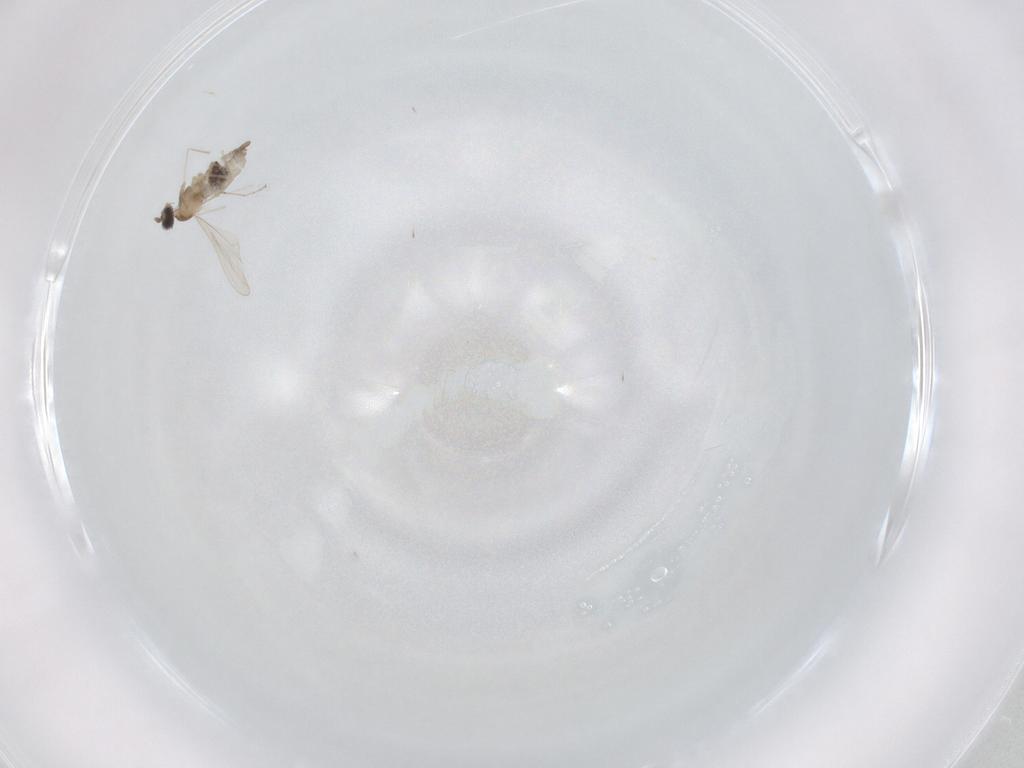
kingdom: Animalia
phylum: Arthropoda
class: Insecta
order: Diptera
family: Cecidomyiidae
